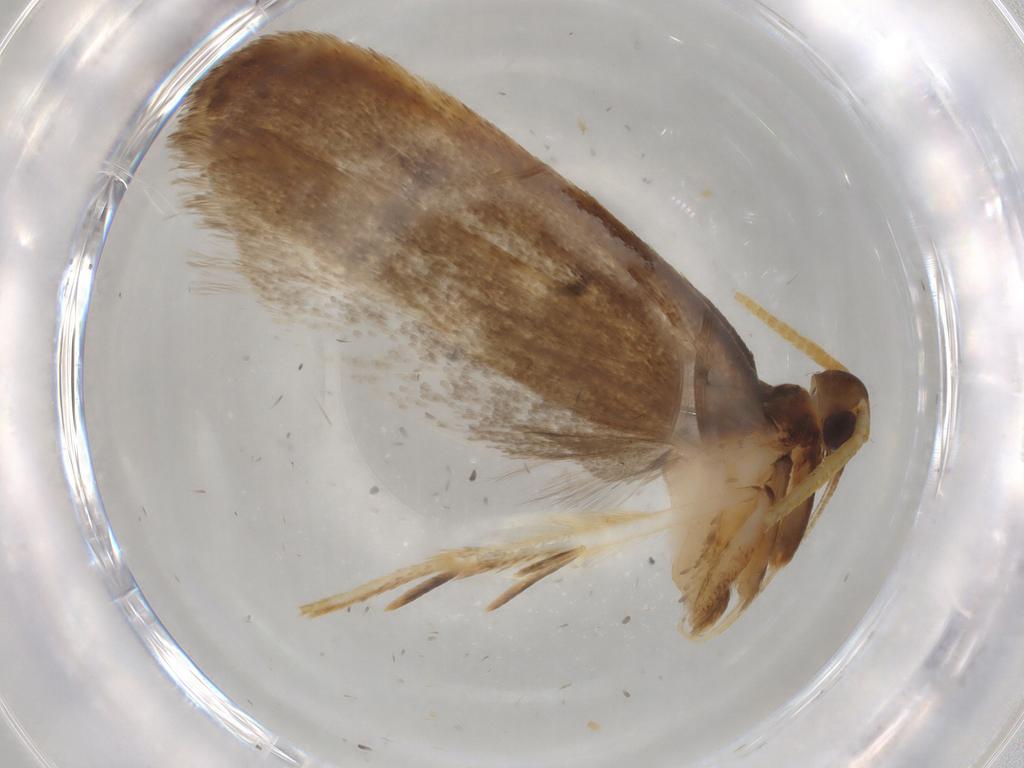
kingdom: Animalia
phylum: Arthropoda
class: Insecta
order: Lepidoptera
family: Lecithoceridae
